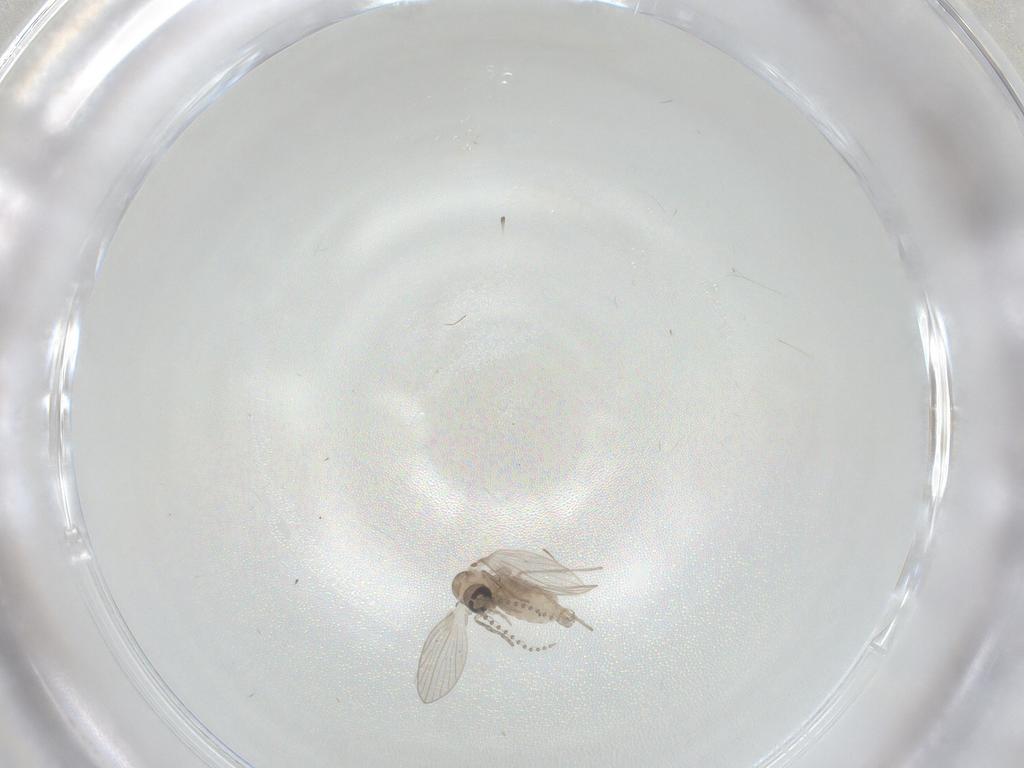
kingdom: Animalia
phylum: Arthropoda
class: Insecta
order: Diptera
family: Psychodidae
